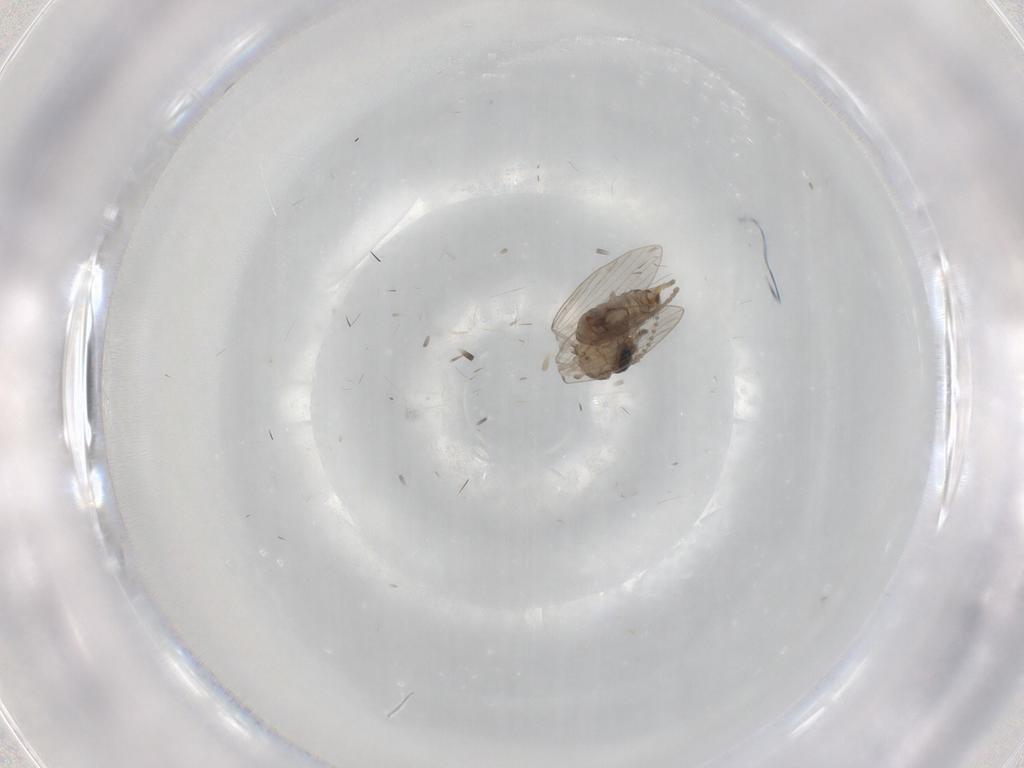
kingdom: Animalia
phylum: Arthropoda
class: Insecta
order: Diptera
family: Psychodidae
